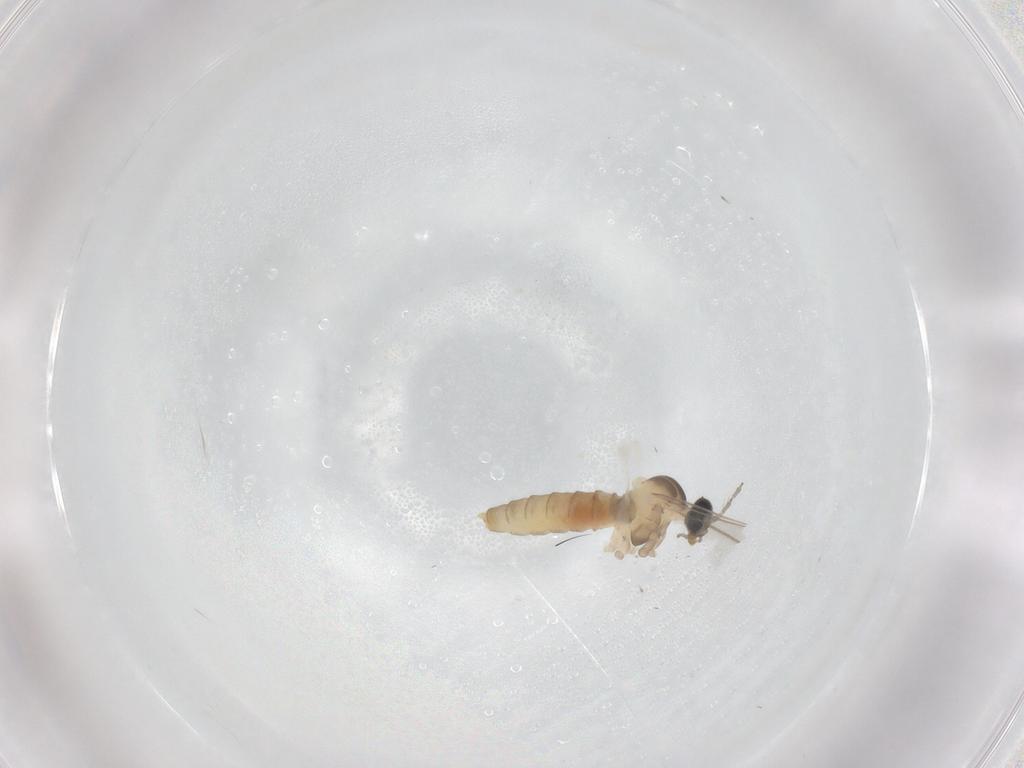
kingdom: Animalia
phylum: Arthropoda
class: Insecta
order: Diptera
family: Cecidomyiidae
